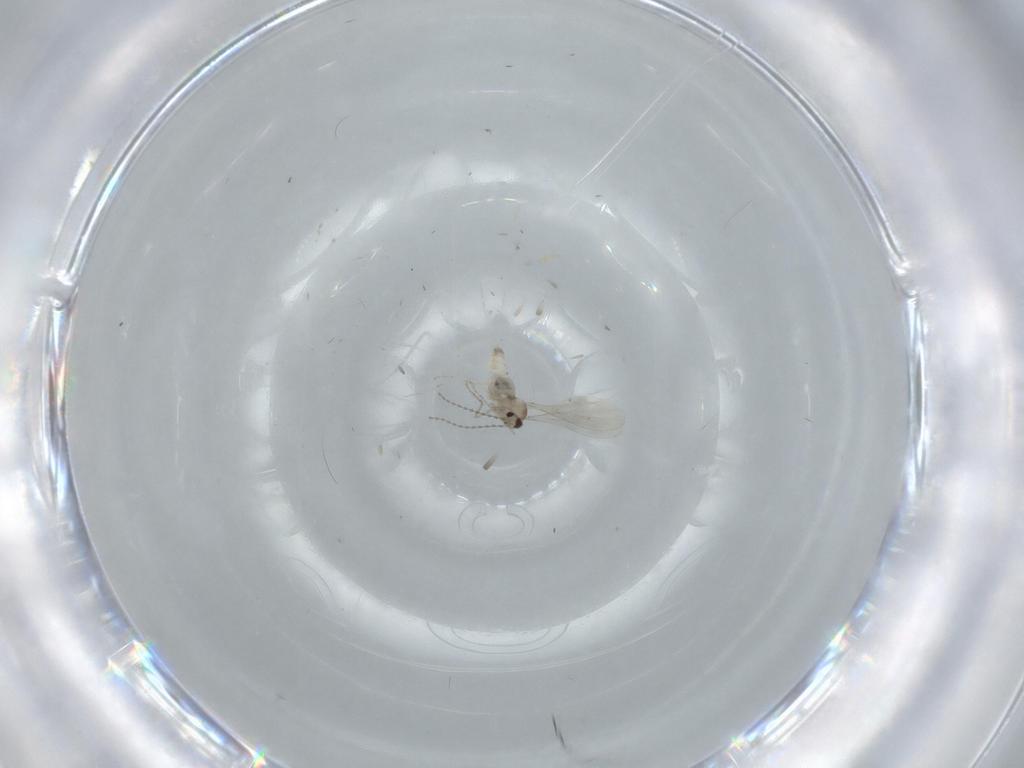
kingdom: Animalia
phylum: Arthropoda
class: Insecta
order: Diptera
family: Cecidomyiidae
